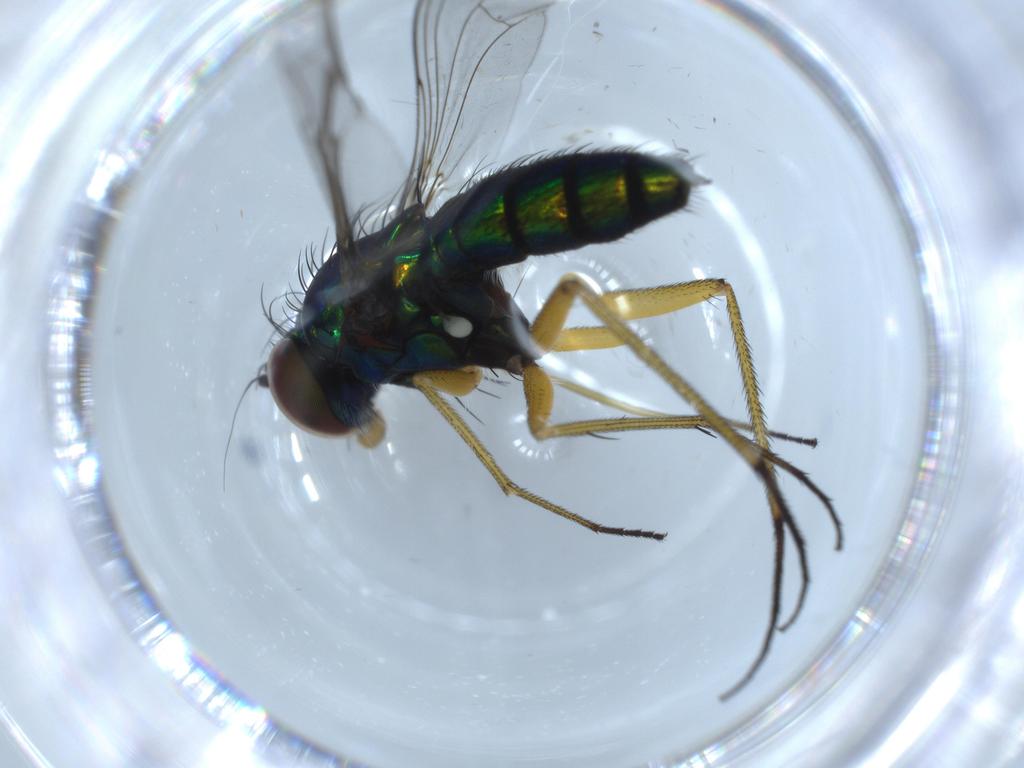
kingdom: Animalia
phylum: Arthropoda
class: Insecta
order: Diptera
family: Dolichopodidae
